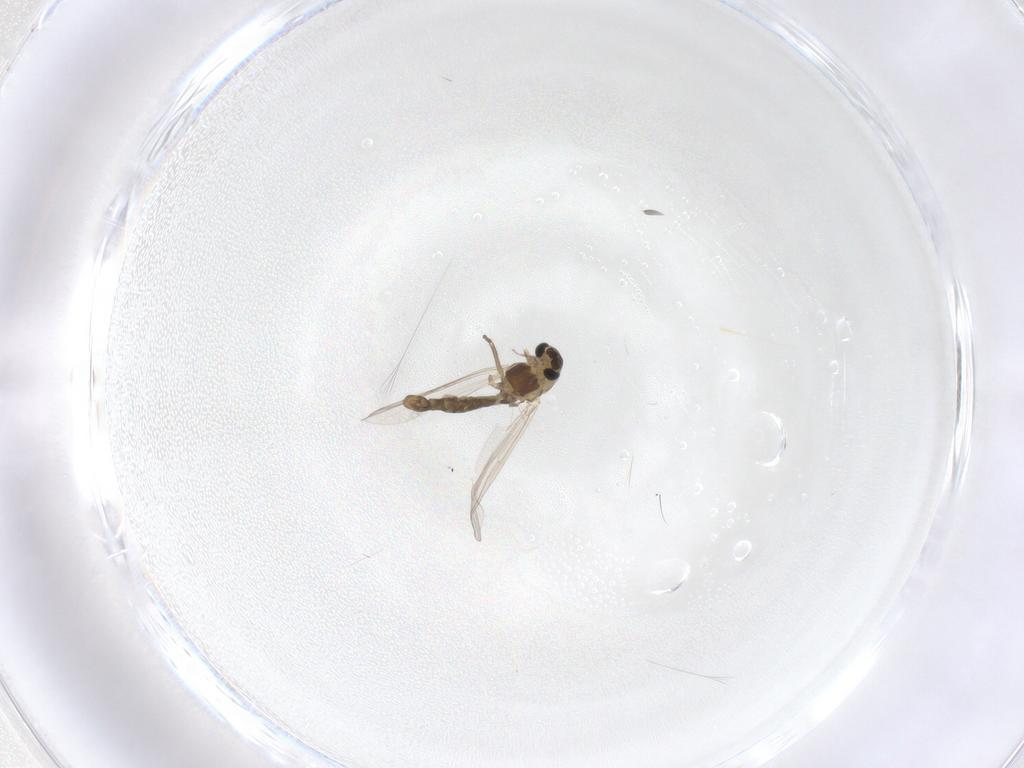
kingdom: Animalia
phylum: Arthropoda
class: Insecta
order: Diptera
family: Chironomidae
